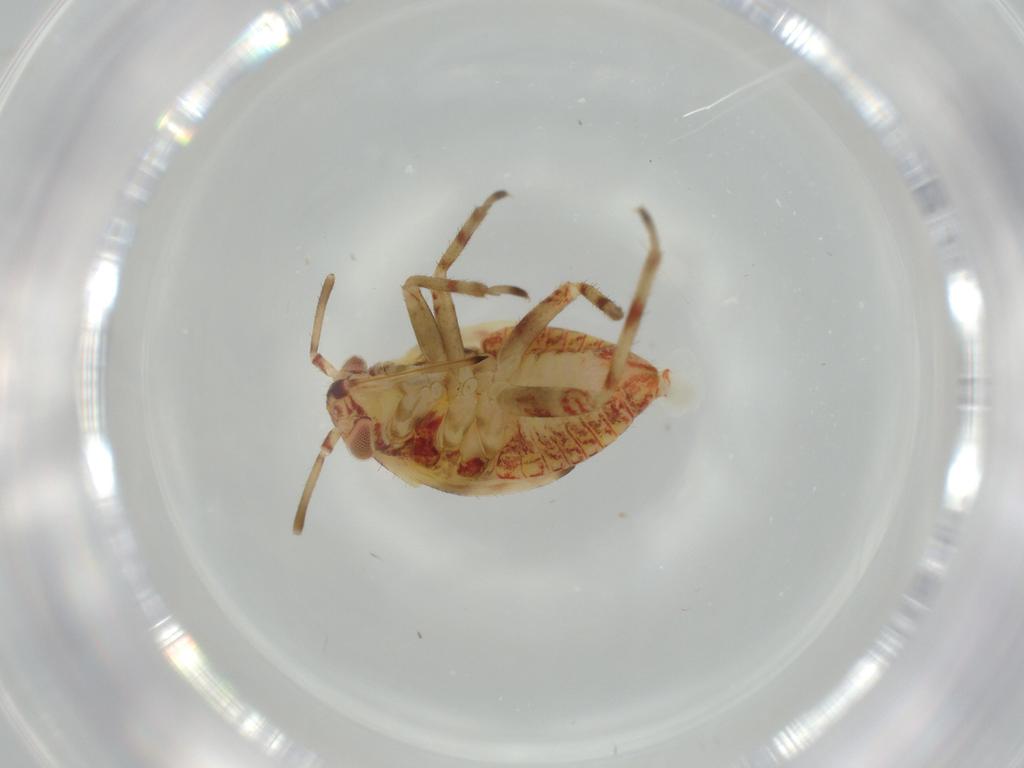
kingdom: Animalia
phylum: Arthropoda
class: Insecta
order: Hemiptera
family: Miridae
